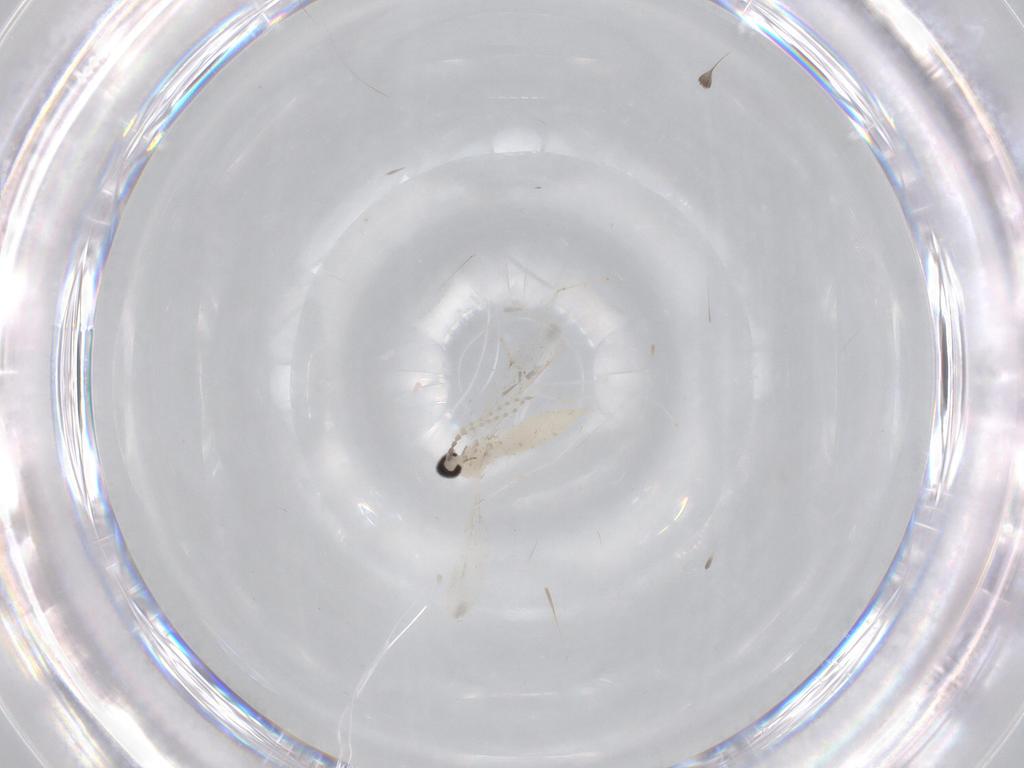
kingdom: Animalia
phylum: Arthropoda
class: Insecta
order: Diptera
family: Cecidomyiidae
